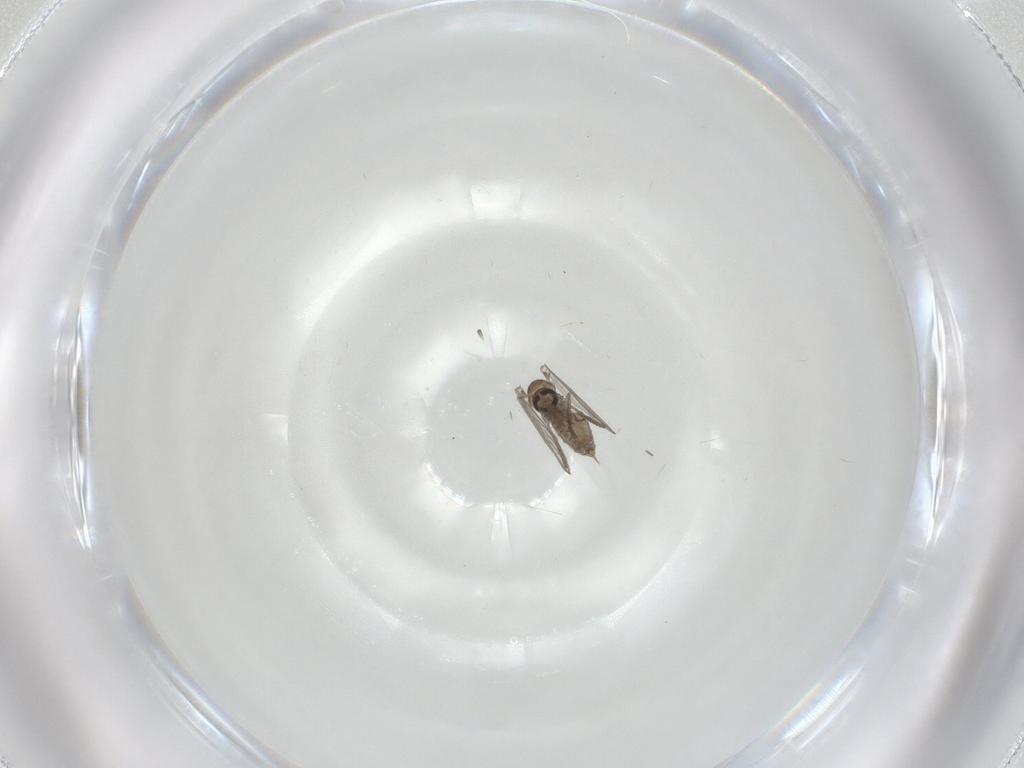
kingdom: Animalia
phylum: Arthropoda
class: Insecta
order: Diptera
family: Psychodidae
